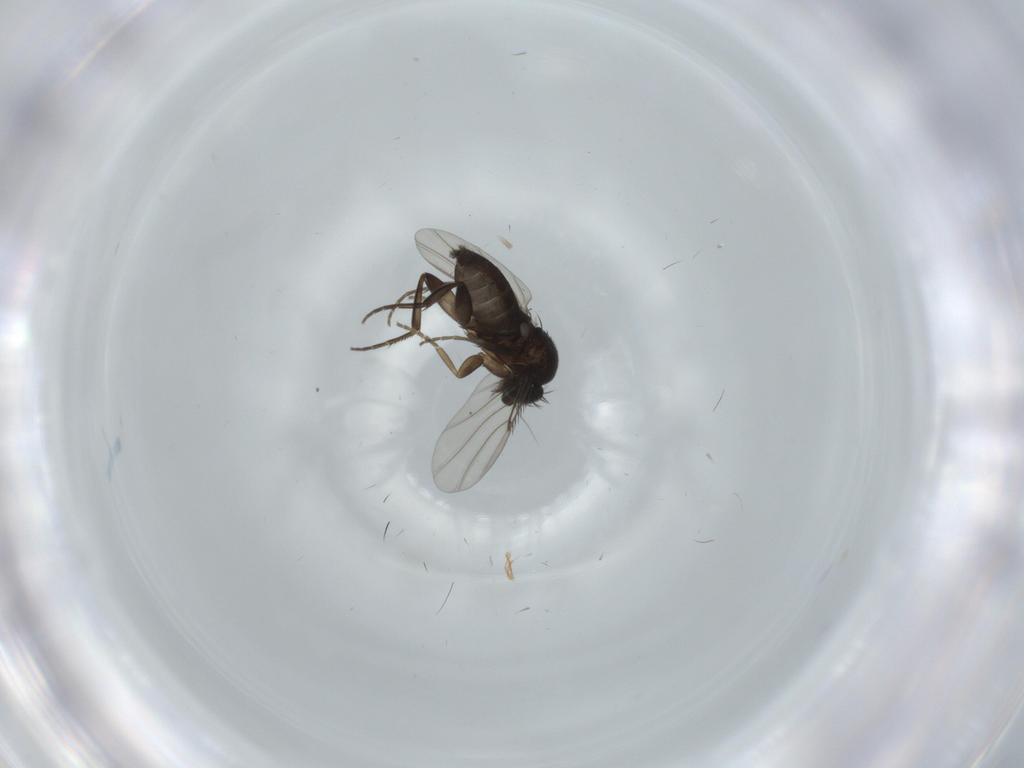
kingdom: Animalia
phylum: Arthropoda
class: Insecta
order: Diptera
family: Phoridae
